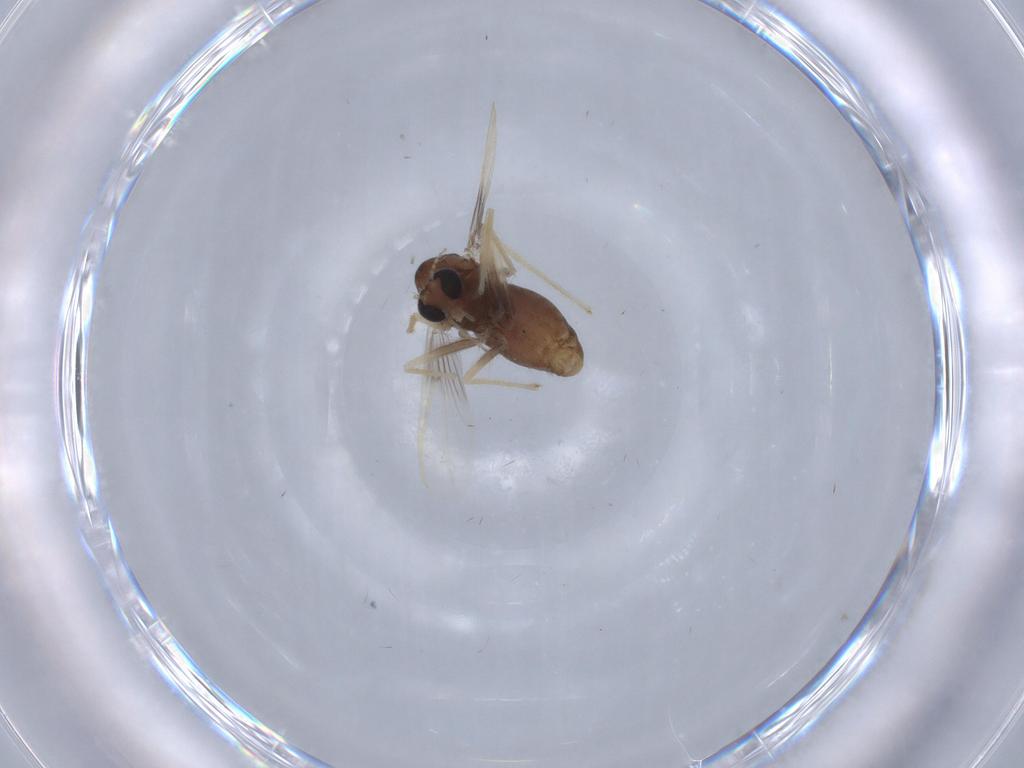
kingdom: Animalia
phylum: Arthropoda
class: Insecta
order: Diptera
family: Chironomidae
